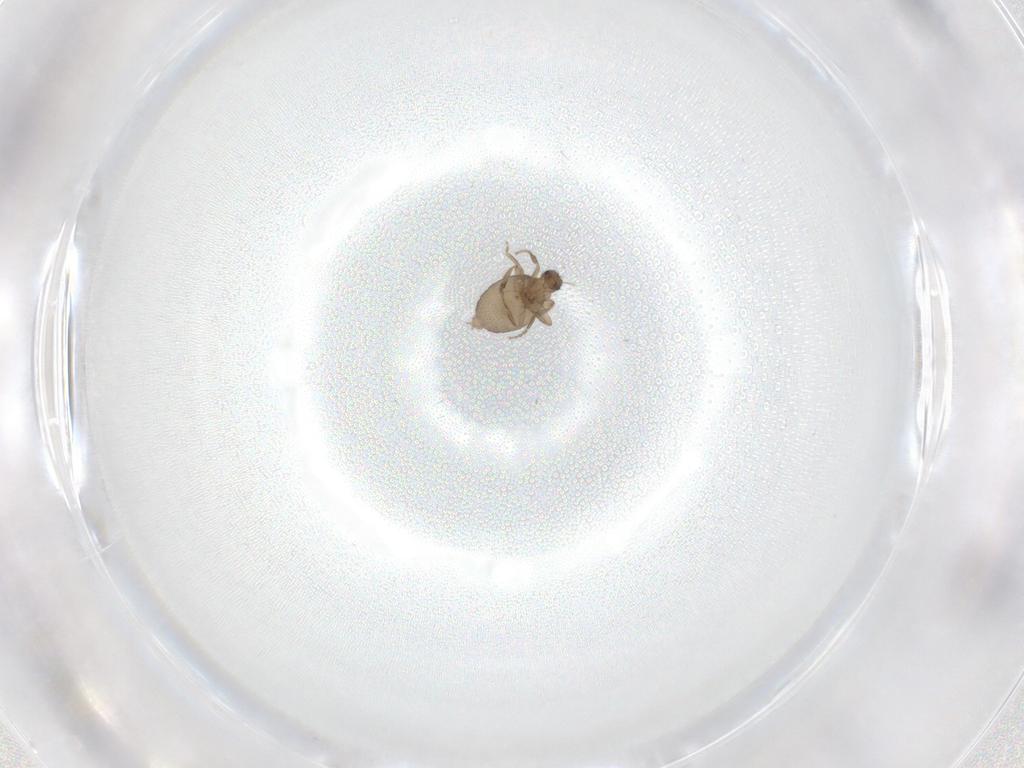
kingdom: Animalia
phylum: Arthropoda
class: Insecta
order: Diptera
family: Phoridae
